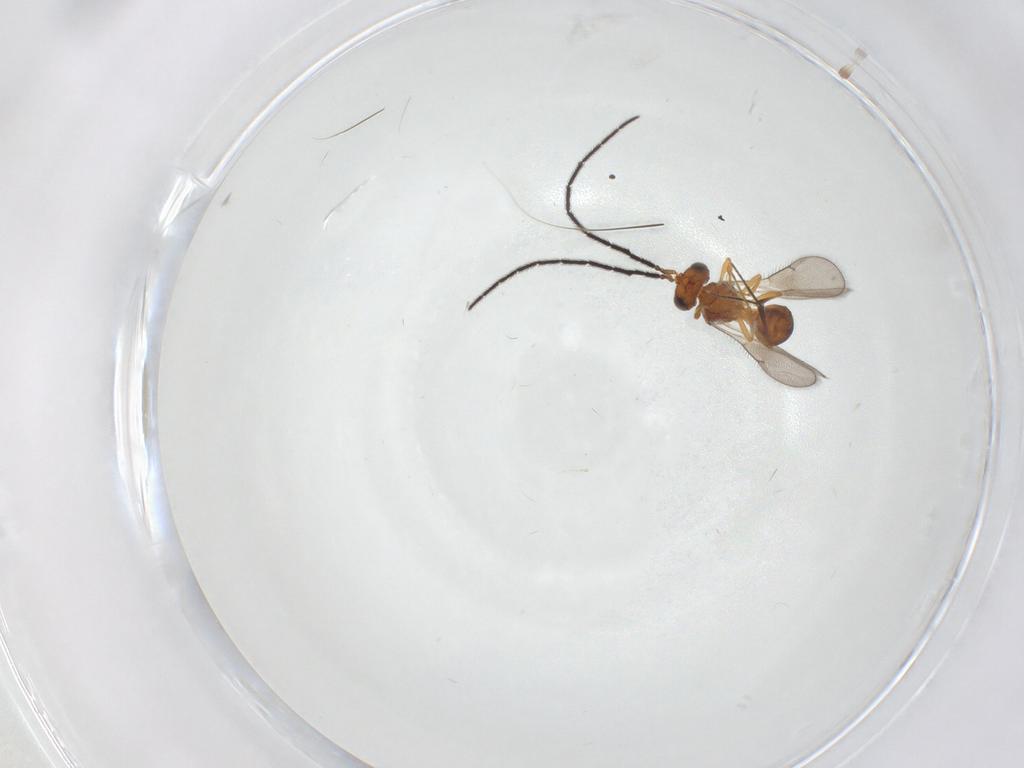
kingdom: Animalia
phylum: Arthropoda
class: Insecta
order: Hymenoptera
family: Scelionidae
